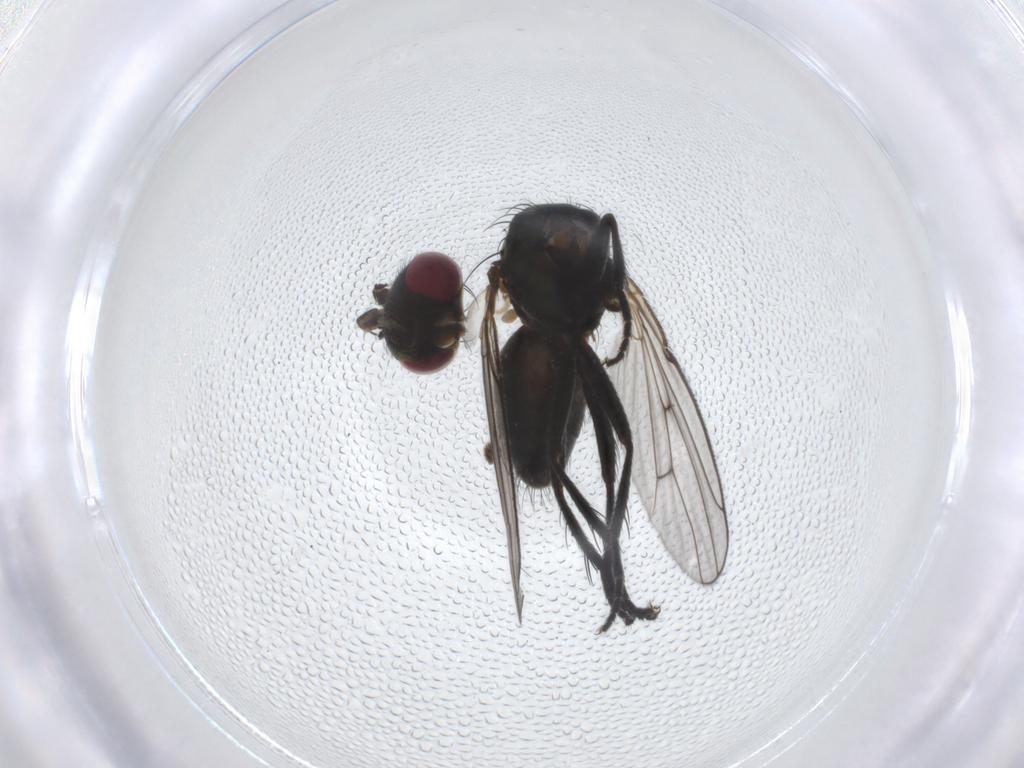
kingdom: Animalia
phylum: Arthropoda
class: Insecta
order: Diptera
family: Muscidae
